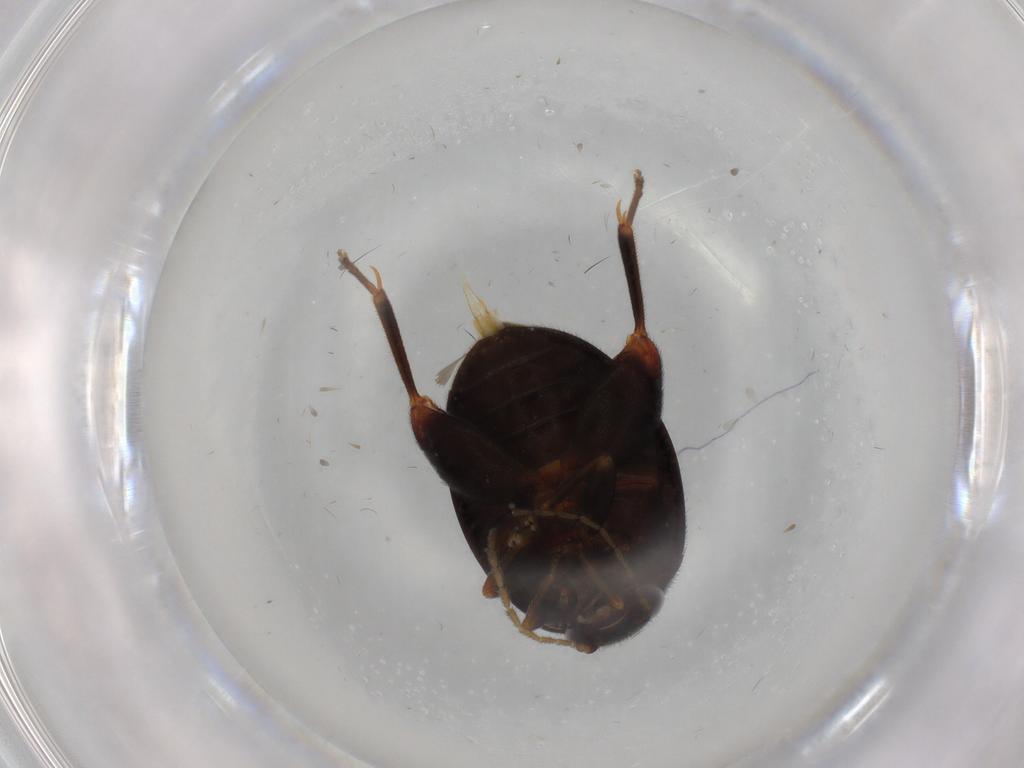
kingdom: Animalia
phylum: Arthropoda
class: Insecta
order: Coleoptera
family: Scirtidae
